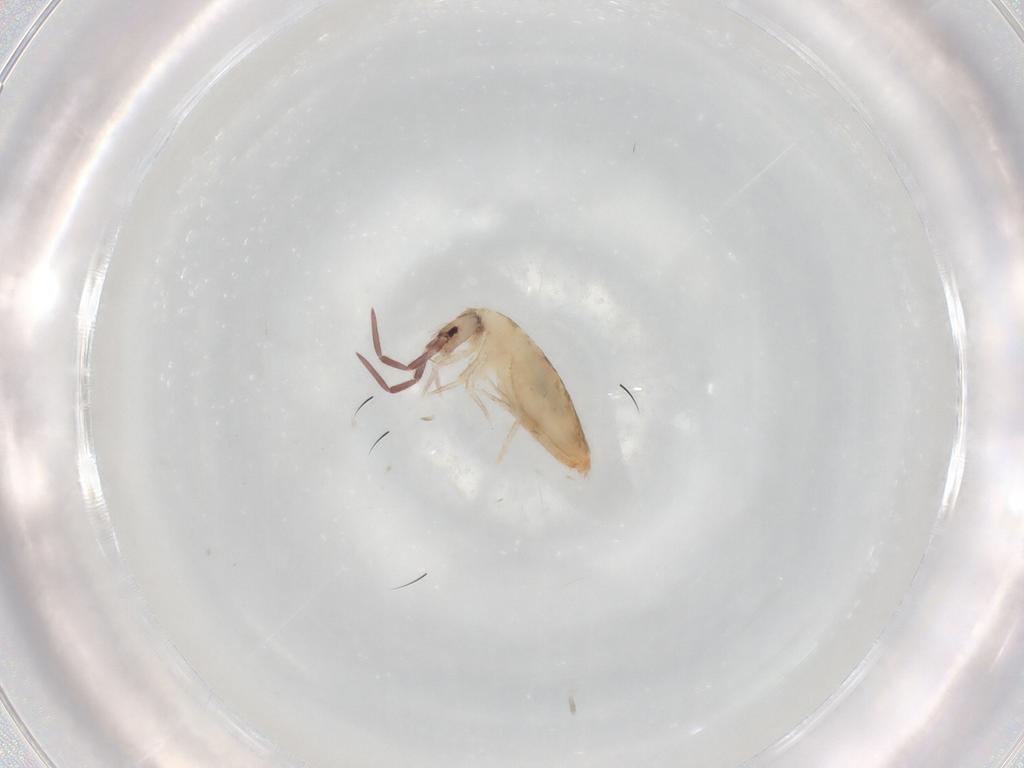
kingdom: Animalia
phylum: Arthropoda
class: Collembola
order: Entomobryomorpha
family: Entomobryidae
